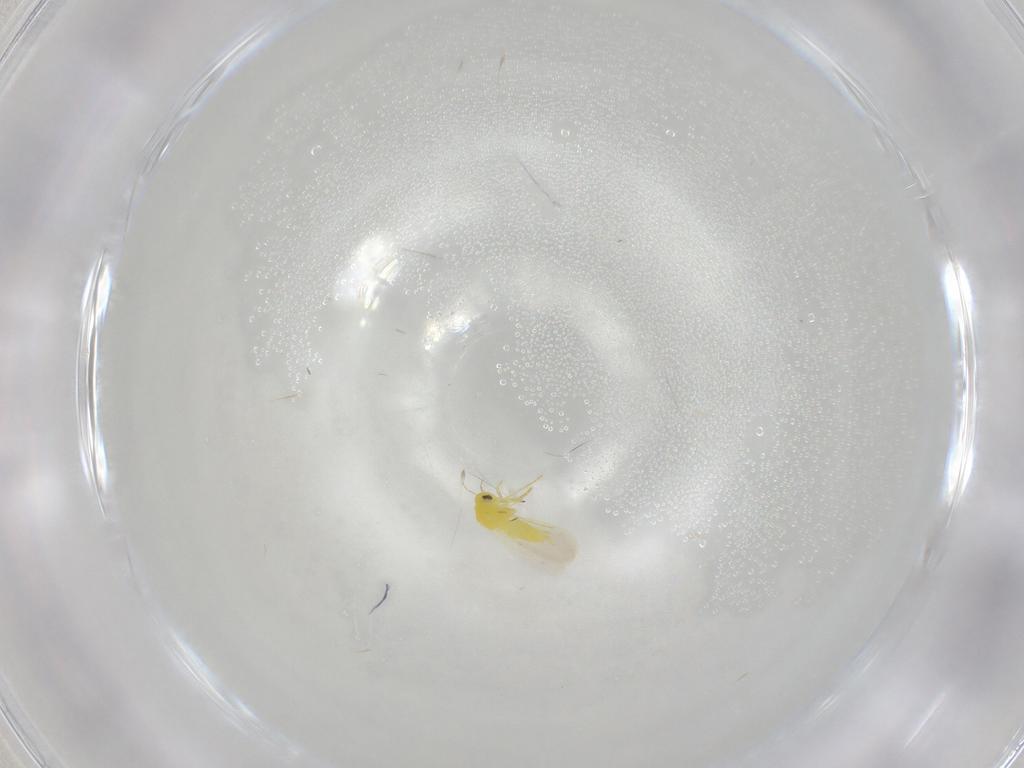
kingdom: Animalia
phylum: Arthropoda
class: Insecta
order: Hemiptera
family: Aleyrodidae
